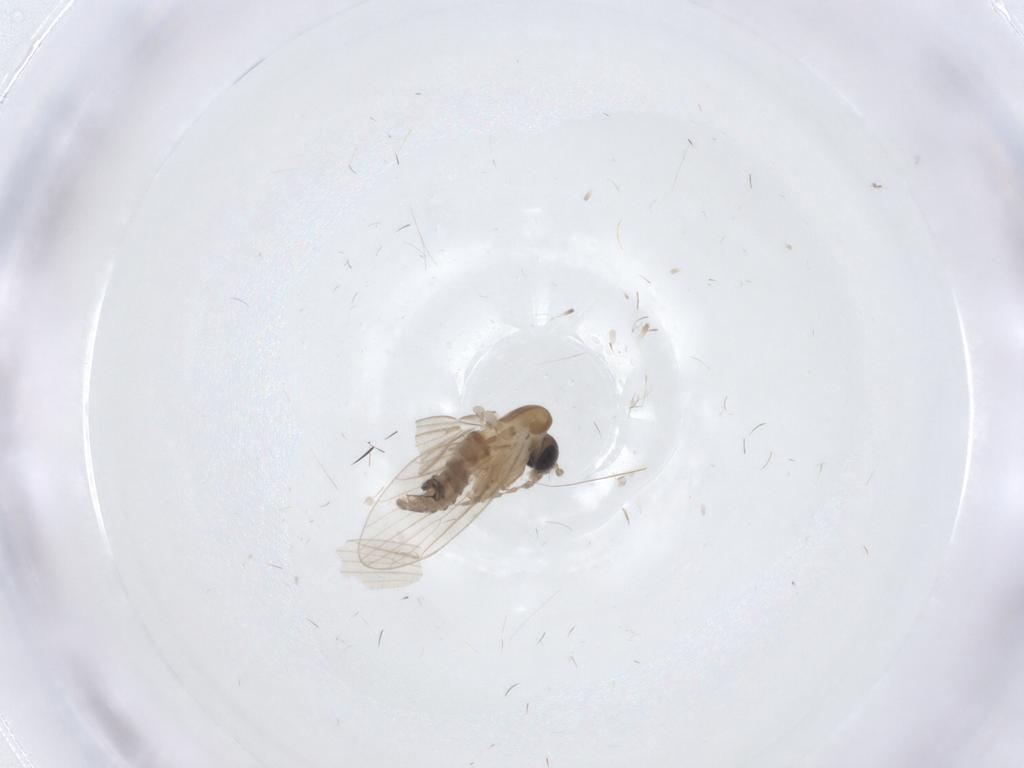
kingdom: Animalia
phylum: Arthropoda
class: Insecta
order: Diptera
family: Psychodidae
